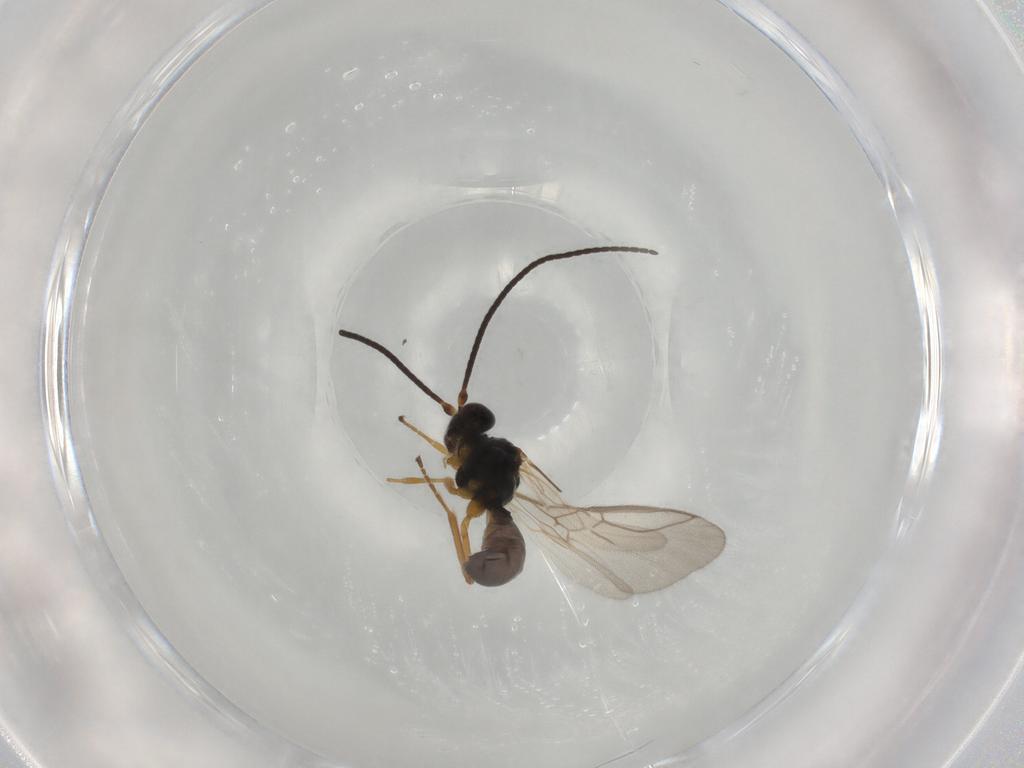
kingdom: Animalia
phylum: Arthropoda
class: Insecta
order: Hymenoptera
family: Braconidae
